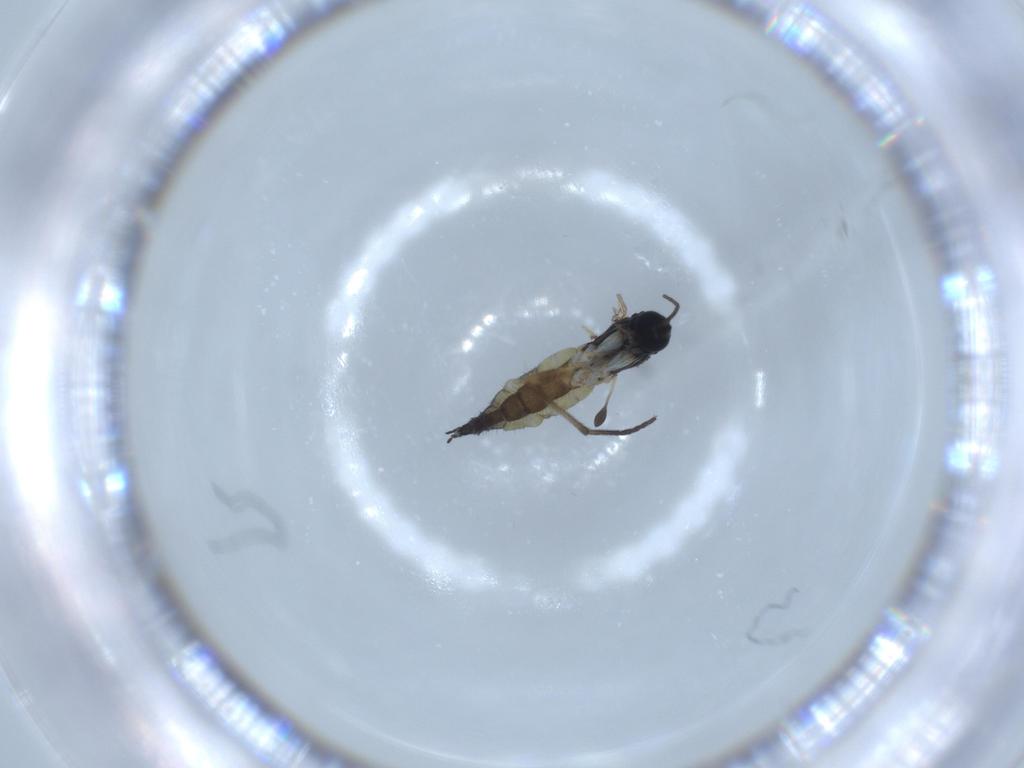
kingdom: Animalia
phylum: Arthropoda
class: Insecta
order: Diptera
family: Sciaridae
